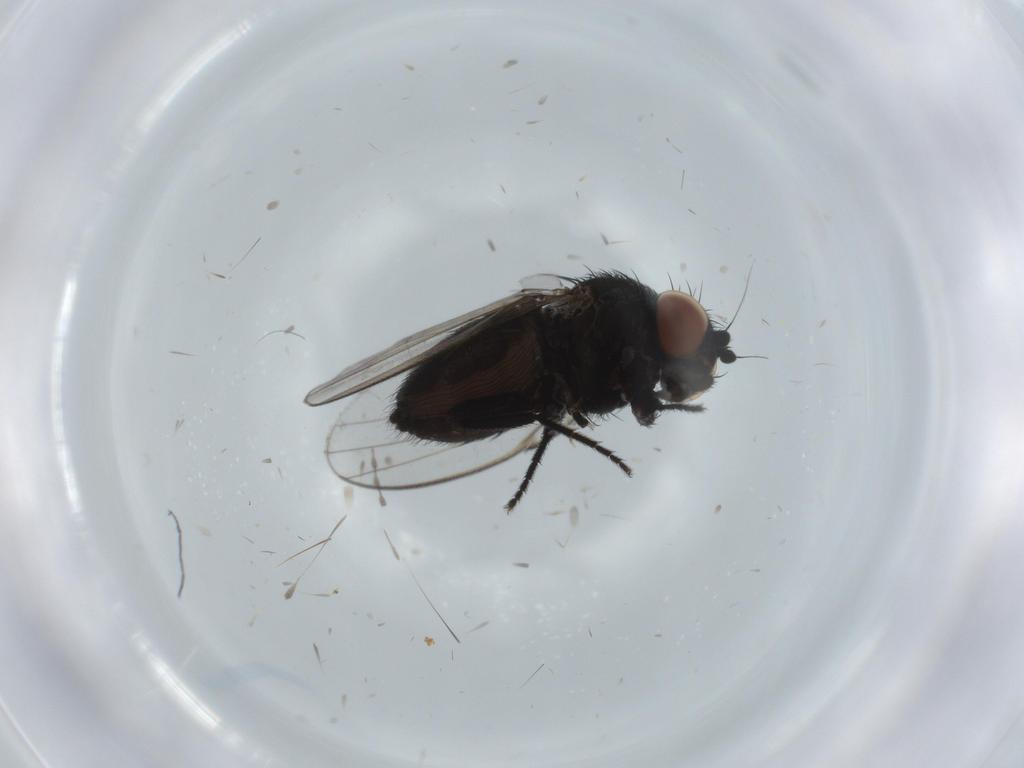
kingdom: Animalia
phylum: Arthropoda
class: Insecta
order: Diptera
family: Milichiidae
